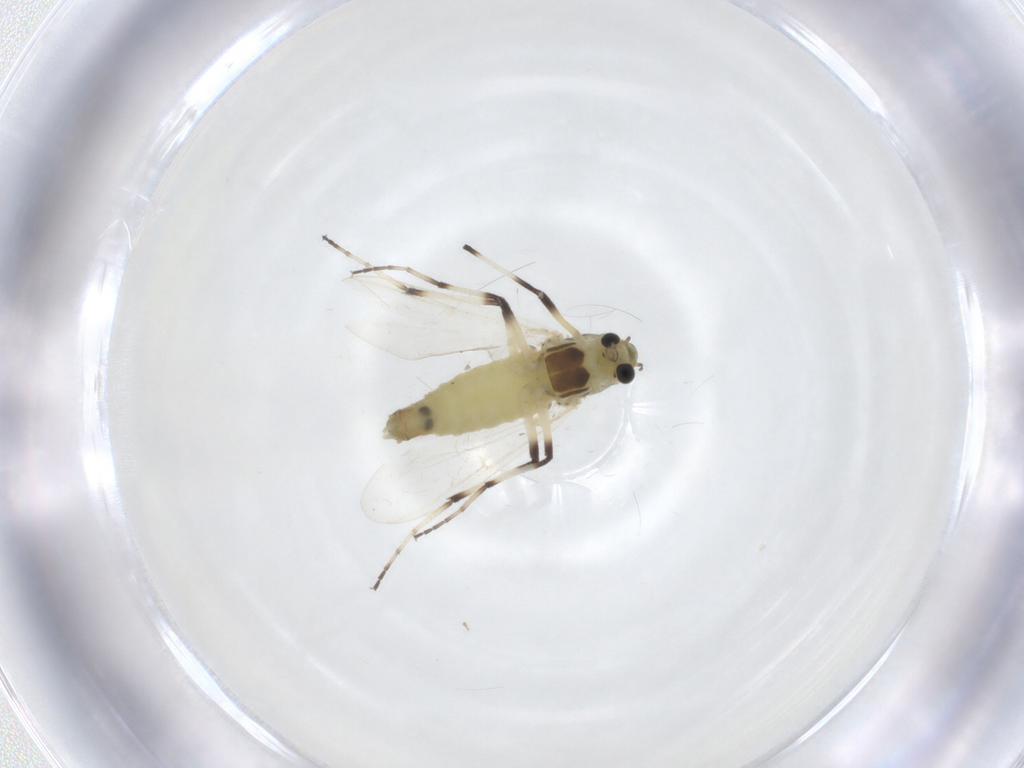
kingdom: Animalia
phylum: Arthropoda
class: Insecta
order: Diptera
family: Chironomidae
